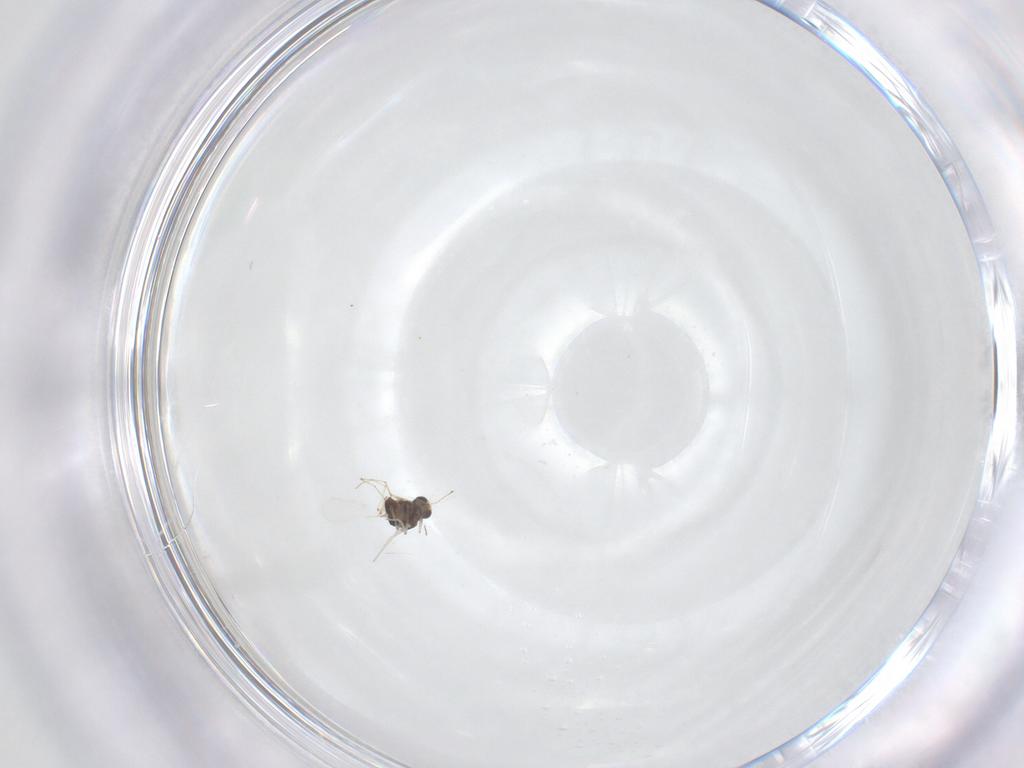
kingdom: Animalia
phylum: Arthropoda
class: Insecta
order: Diptera
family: Chironomidae
